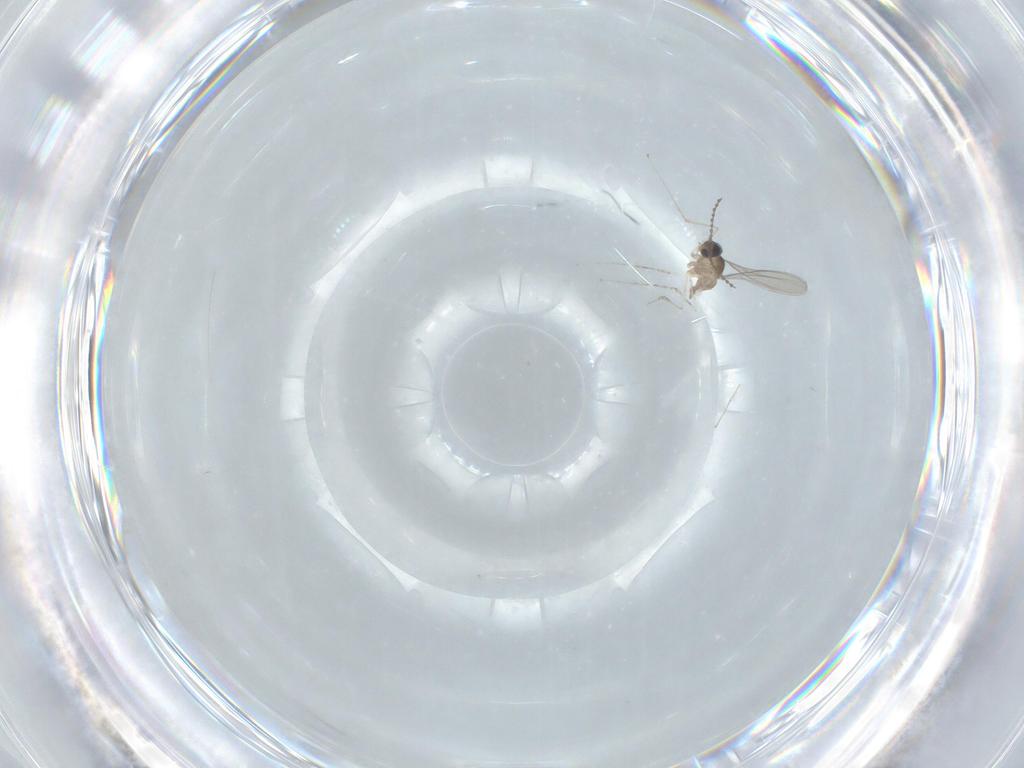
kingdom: Animalia
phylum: Arthropoda
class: Insecta
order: Diptera
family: Cecidomyiidae
